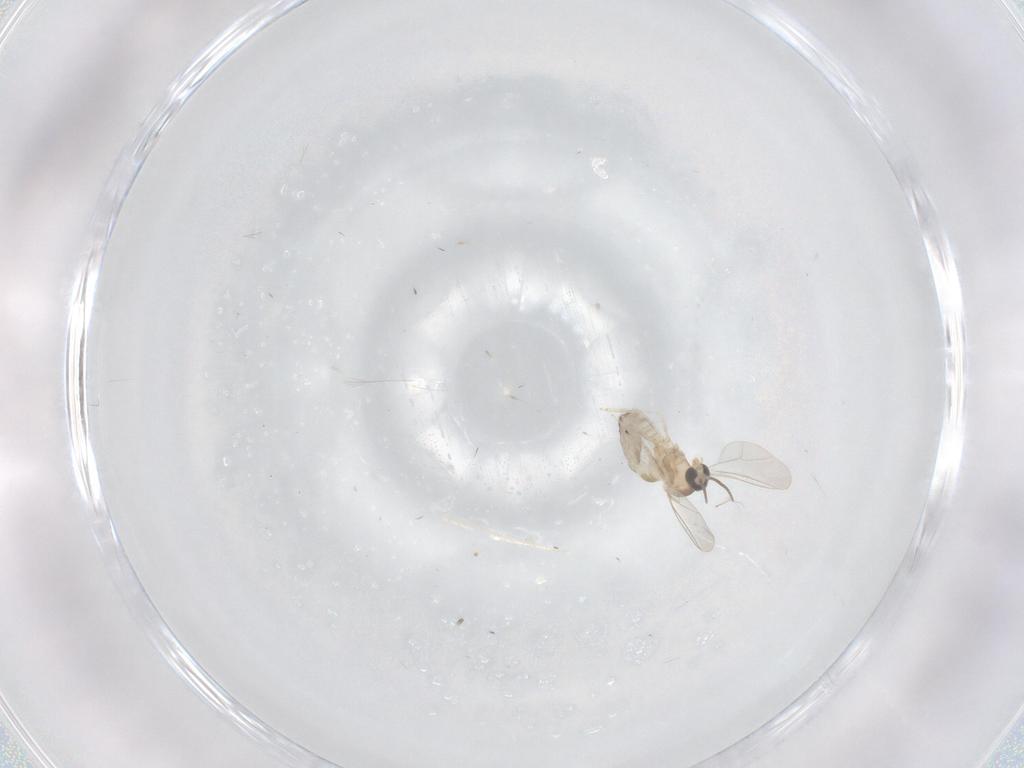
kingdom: Animalia
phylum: Arthropoda
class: Insecta
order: Diptera
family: Cecidomyiidae
